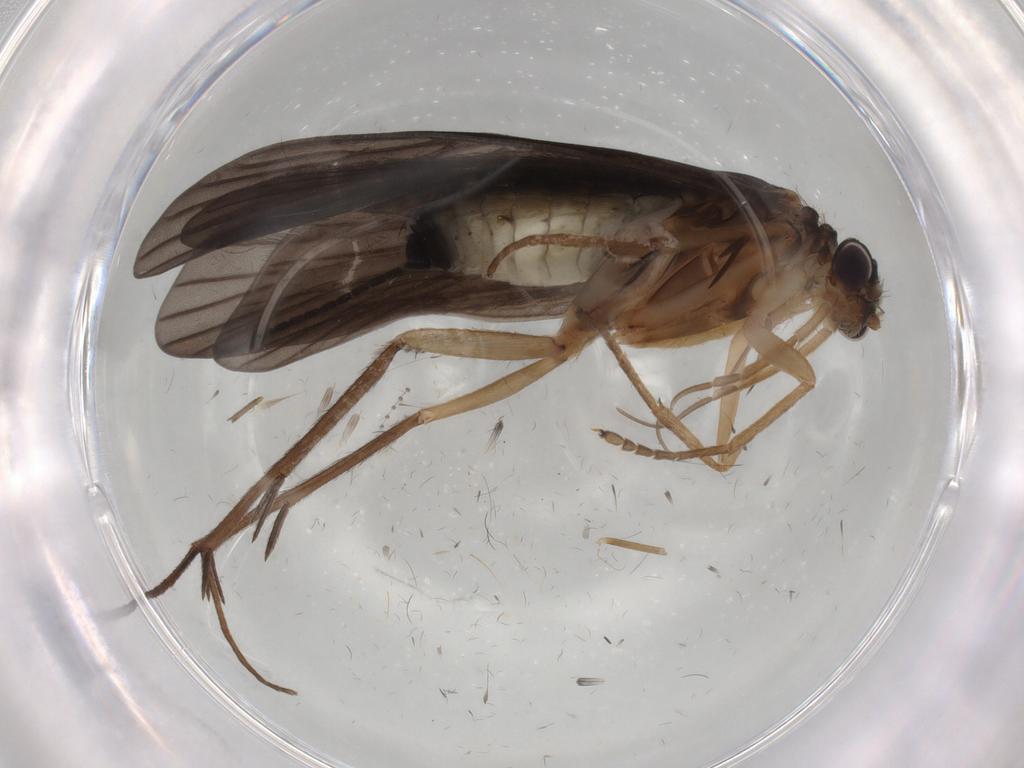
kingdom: Animalia
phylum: Arthropoda
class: Insecta
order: Trichoptera
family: Philopotamidae
